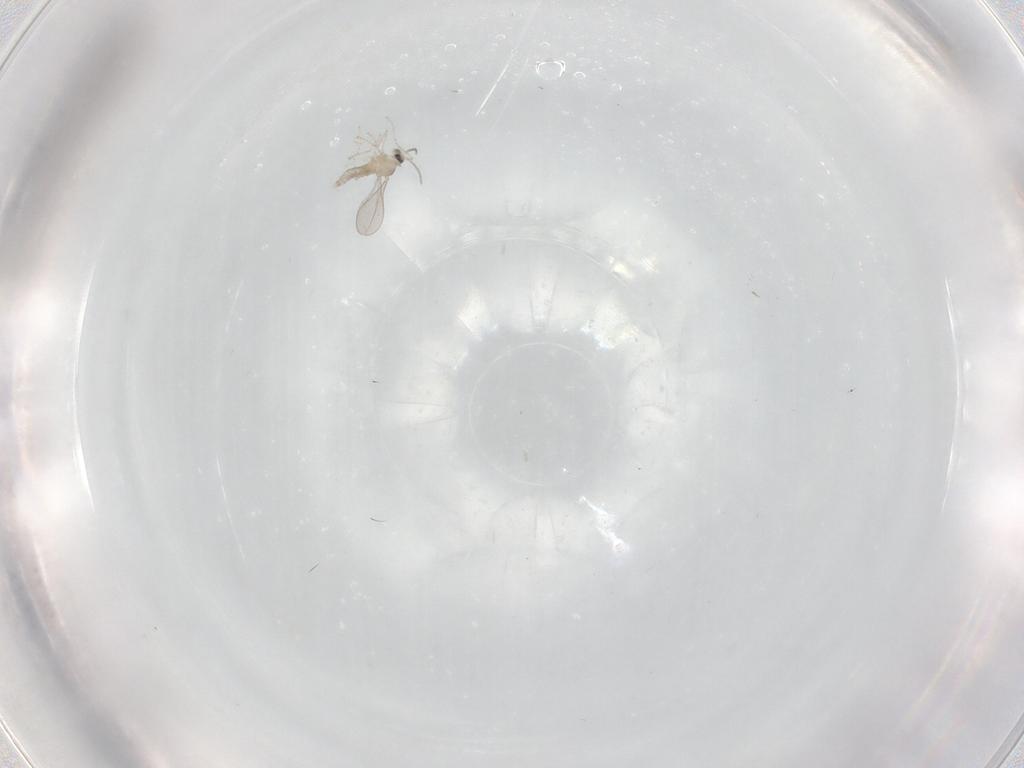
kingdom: Animalia
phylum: Arthropoda
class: Insecta
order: Diptera
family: Cecidomyiidae
